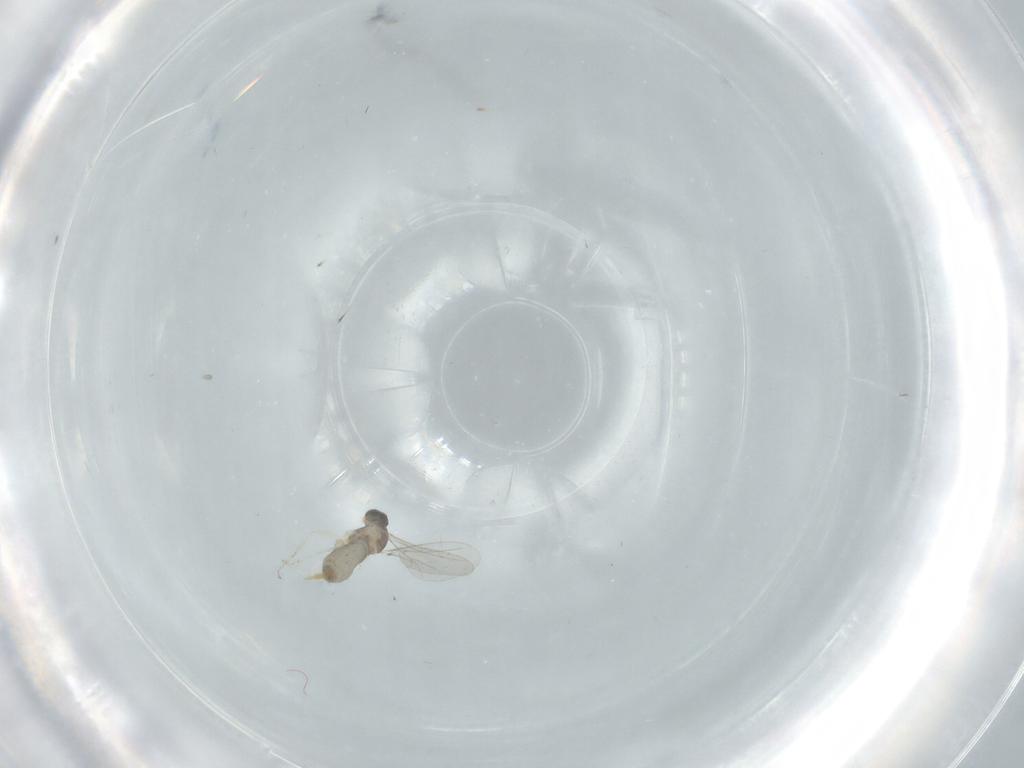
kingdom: Animalia
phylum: Arthropoda
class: Insecta
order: Diptera
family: Cecidomyiidae
